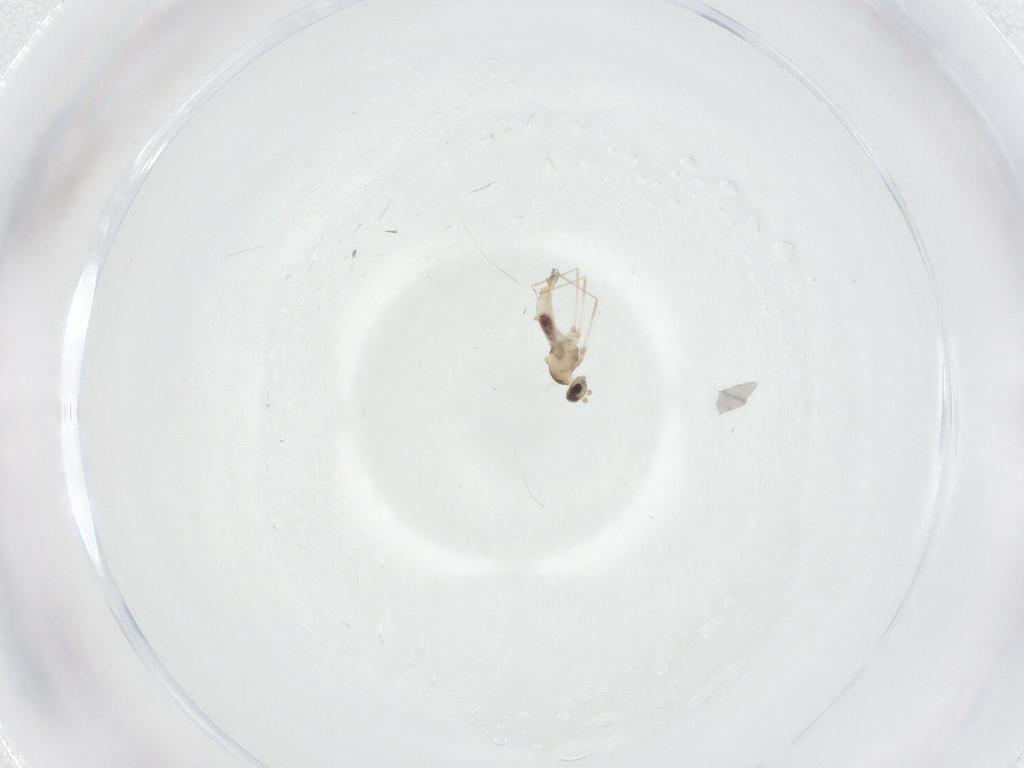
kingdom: Animalia
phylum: Arthropoda
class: Insecta
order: Diptera
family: Cecidomyiidae
